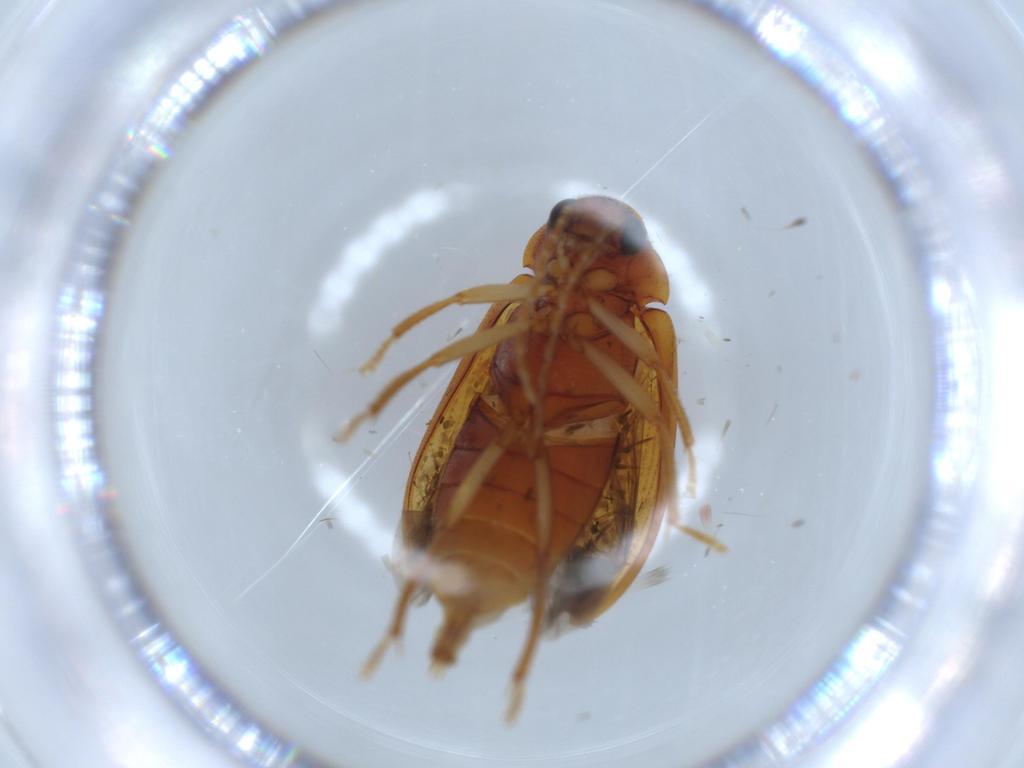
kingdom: Animalia
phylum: Arthropoda
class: Insecta
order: Coleoptera
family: Ptilodactylidae
